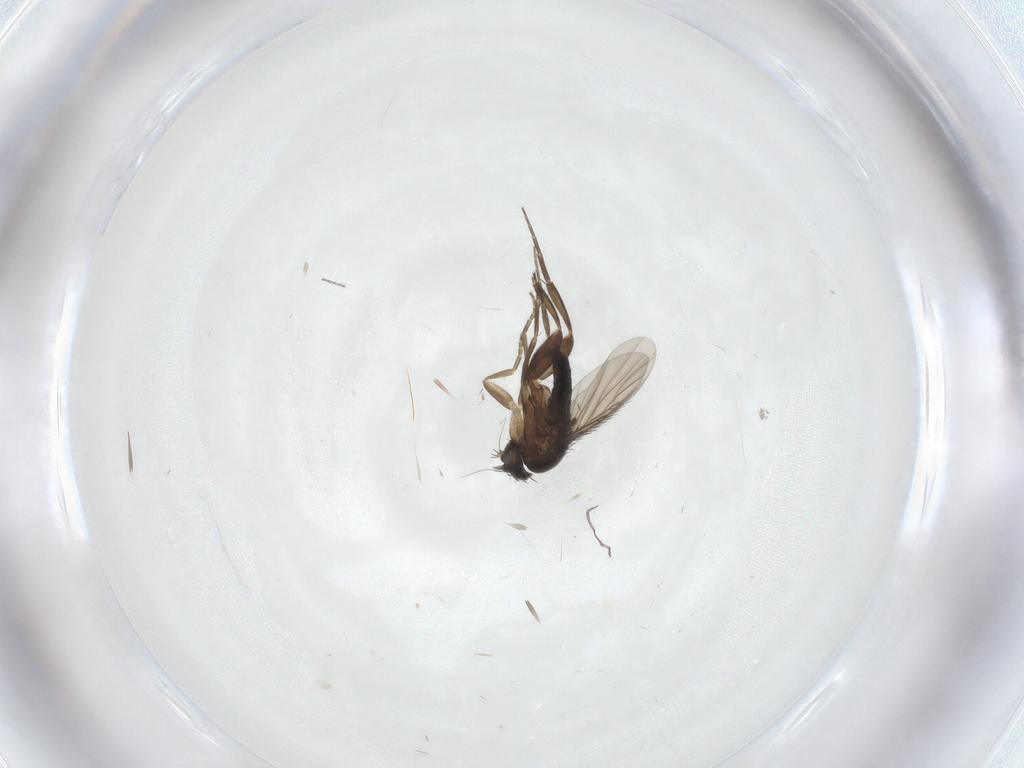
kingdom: Animalia
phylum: Arthropoda
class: Insecta
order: Diptera
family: Phoridae
